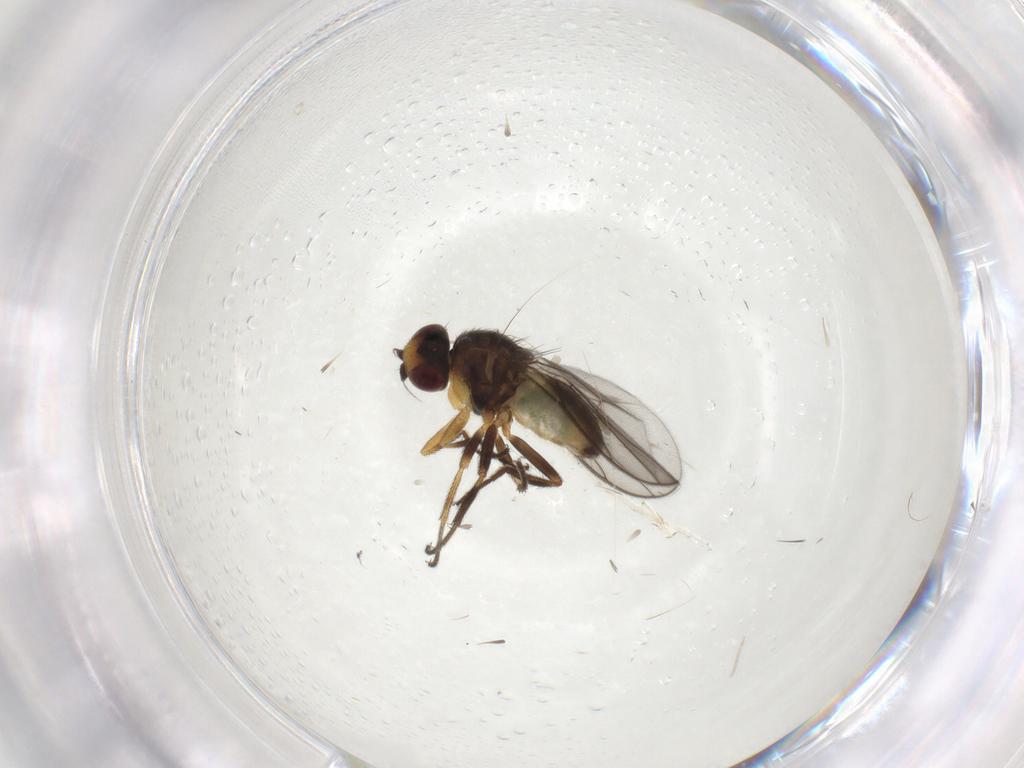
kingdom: Animalia
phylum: Arthropoda
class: Insecta
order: Diptera
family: Chloropidae
